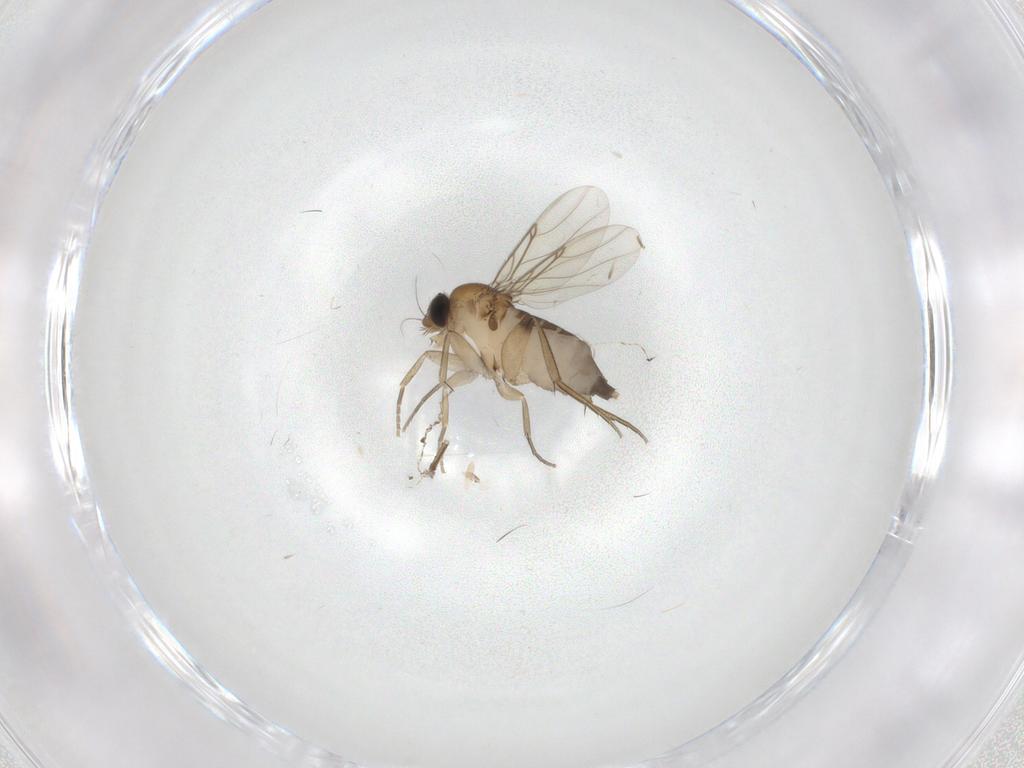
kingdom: Animalia
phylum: Arthropoda
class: Insecta
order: Diptera
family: Phoridae
